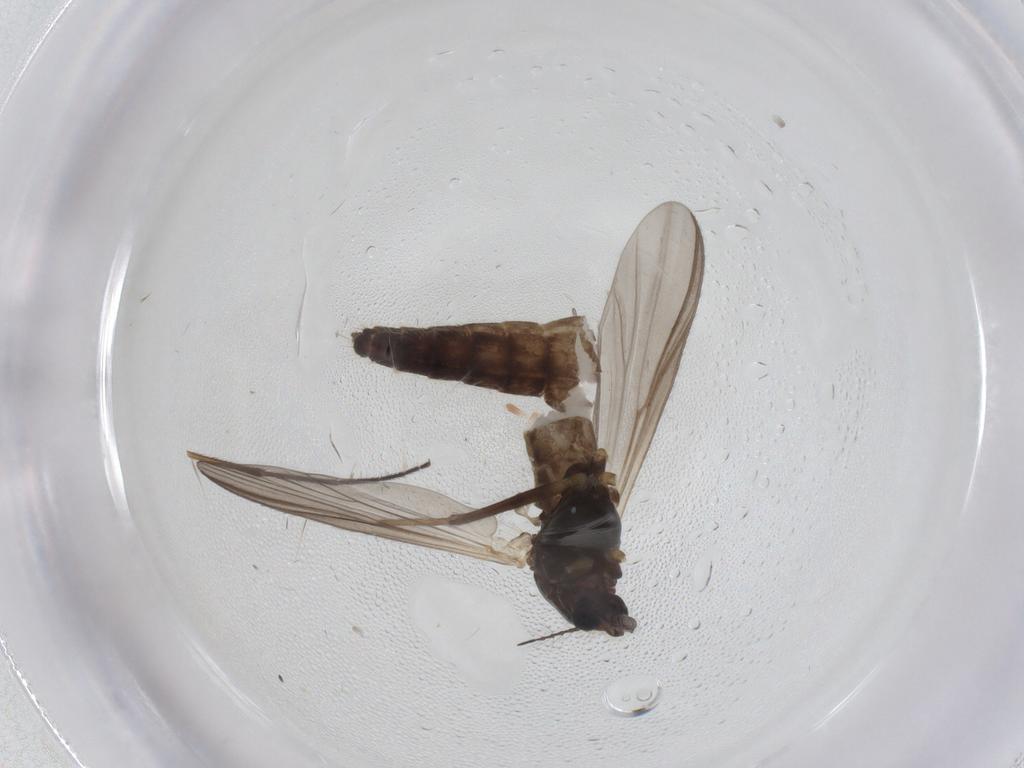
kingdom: Animalia
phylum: Arthropoda
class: Insecta
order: Diptera
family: Chironomidae
